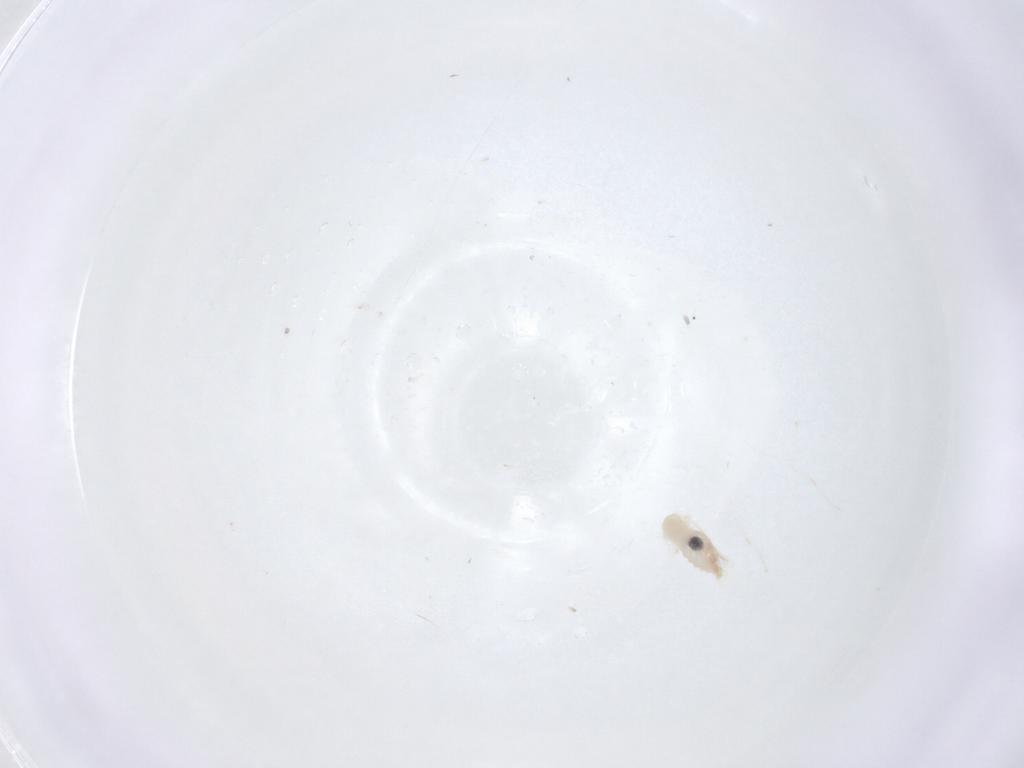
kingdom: Animalia
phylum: Arthropoda
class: Insecta
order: Diptera
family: Cecidomyiidae
